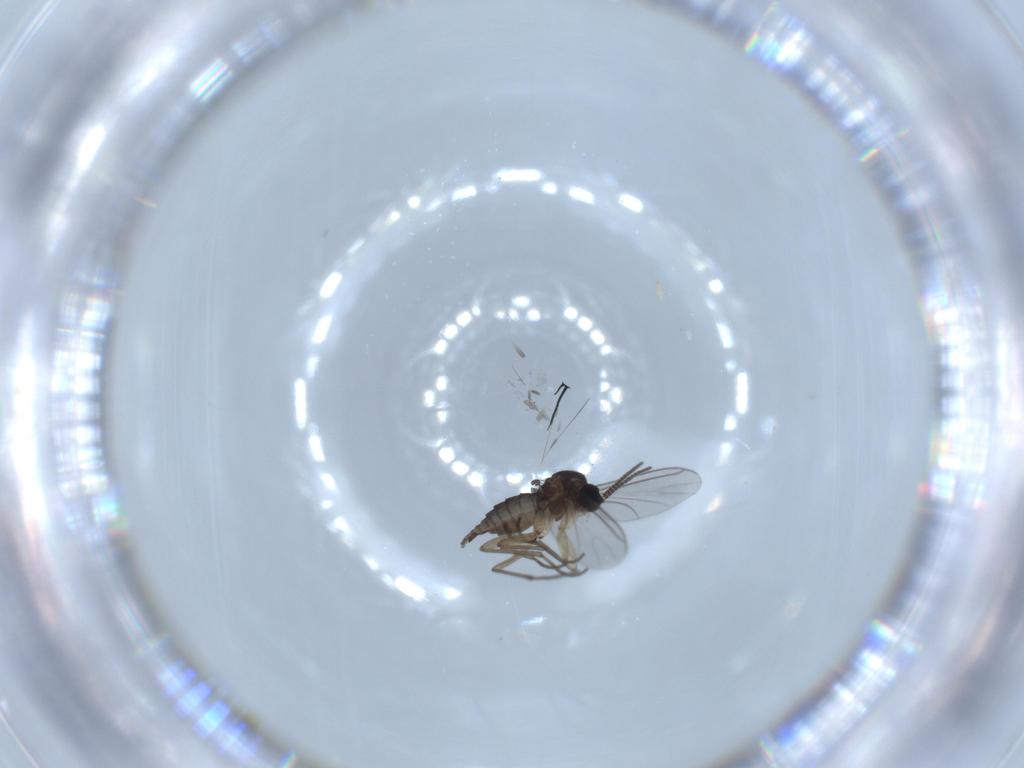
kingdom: Animalia
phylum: Arthropoda
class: Insecta
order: Diptera
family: Sciaridae
